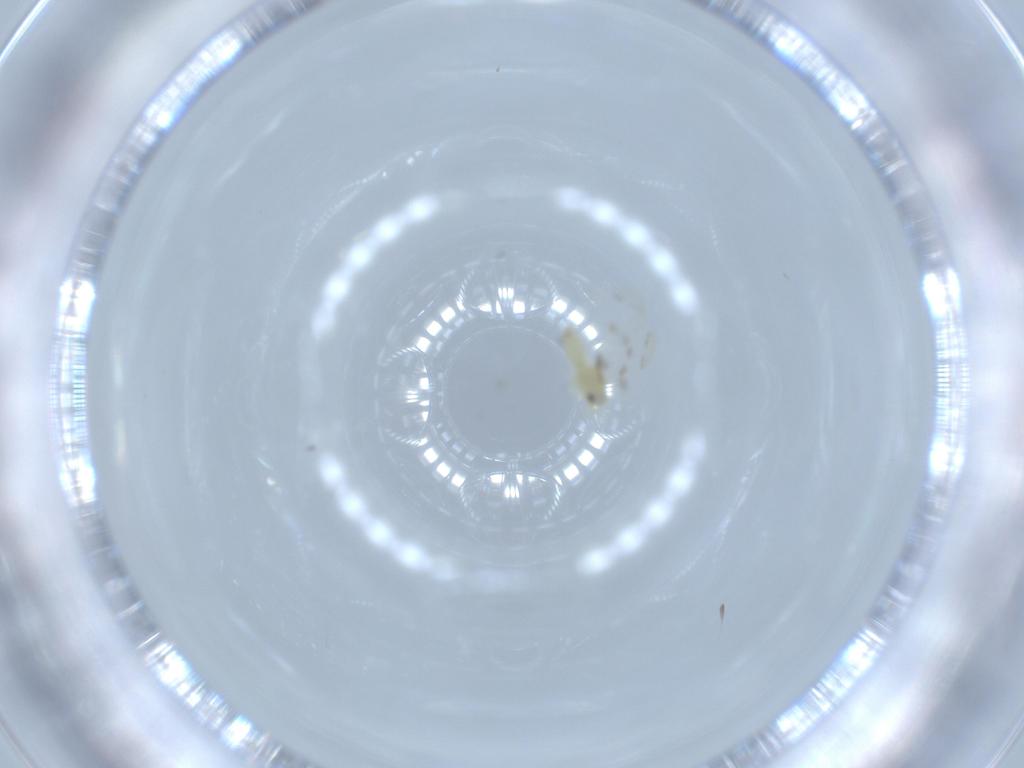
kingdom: Animalia
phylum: Arthropoda
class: Insecta
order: Hemiptera
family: Aleyrodidae
